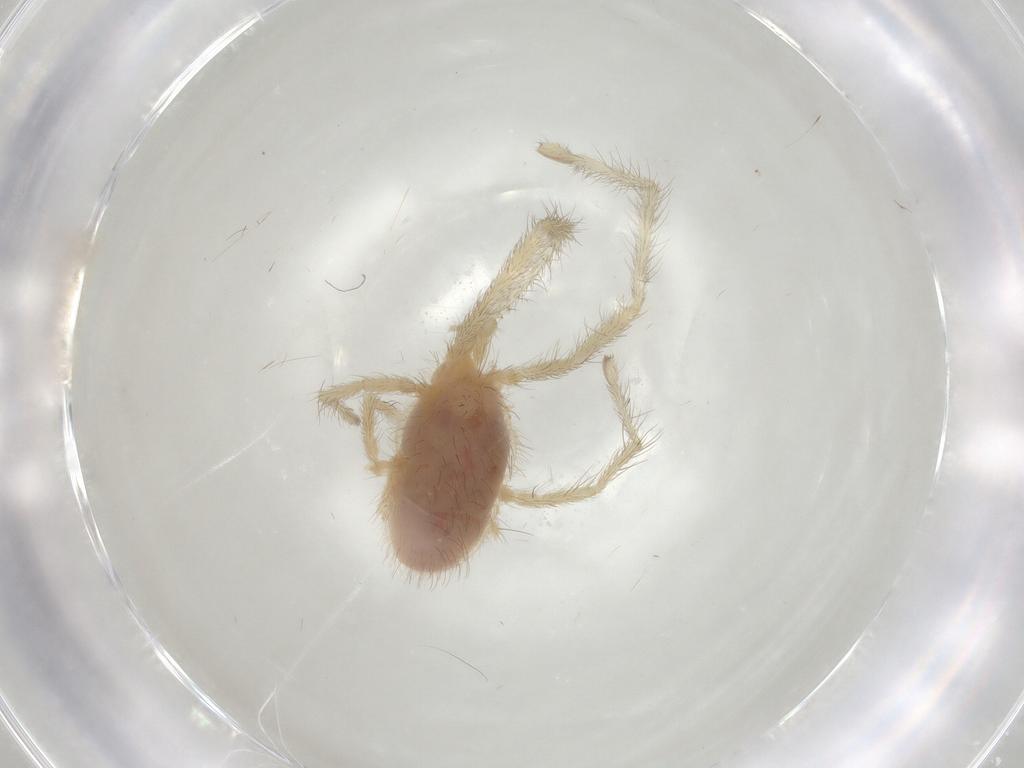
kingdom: Animalia
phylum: Arthropoda
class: Arachnida
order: Trombidiformes
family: Erythraeidae
